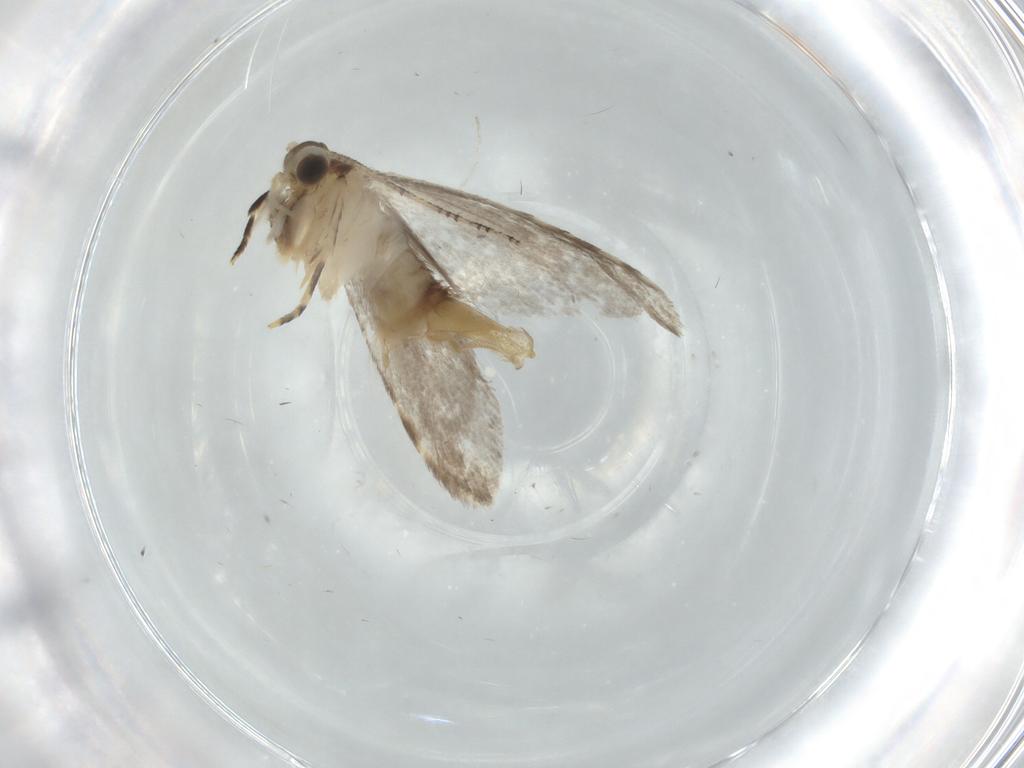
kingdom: Animalia
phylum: Arthropoda
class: Insecta
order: Lepidoptera
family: Tineidae
